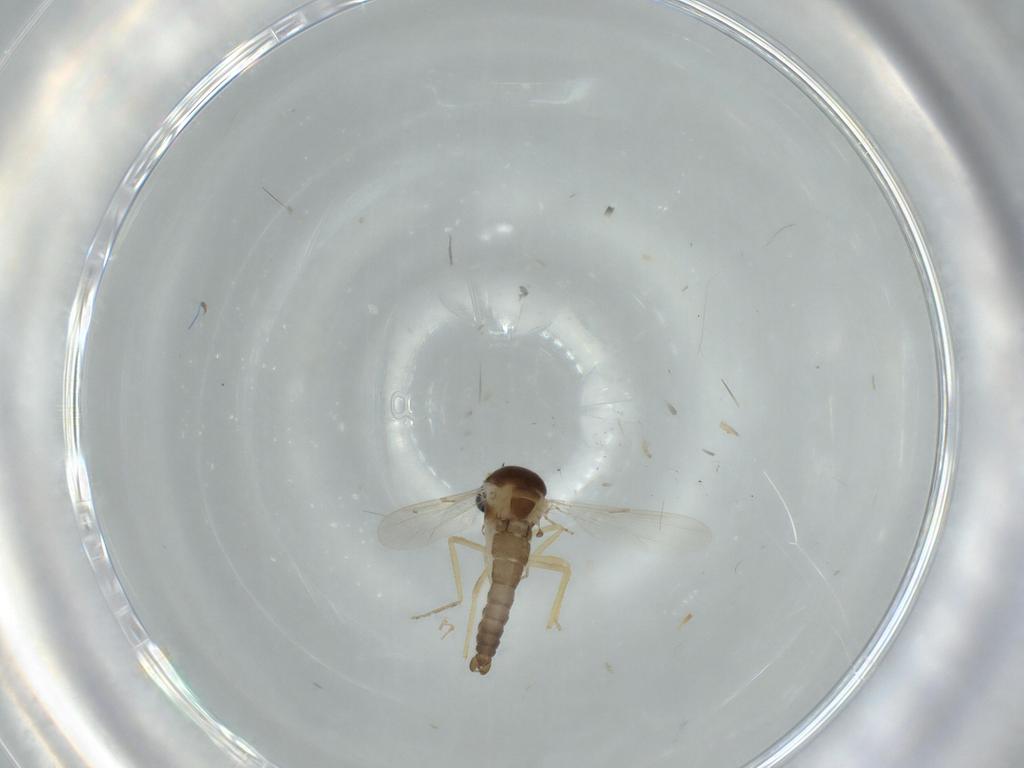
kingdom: Animalia
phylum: Arthropoda
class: Insecta
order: Diptera
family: Ceratopogonidae
